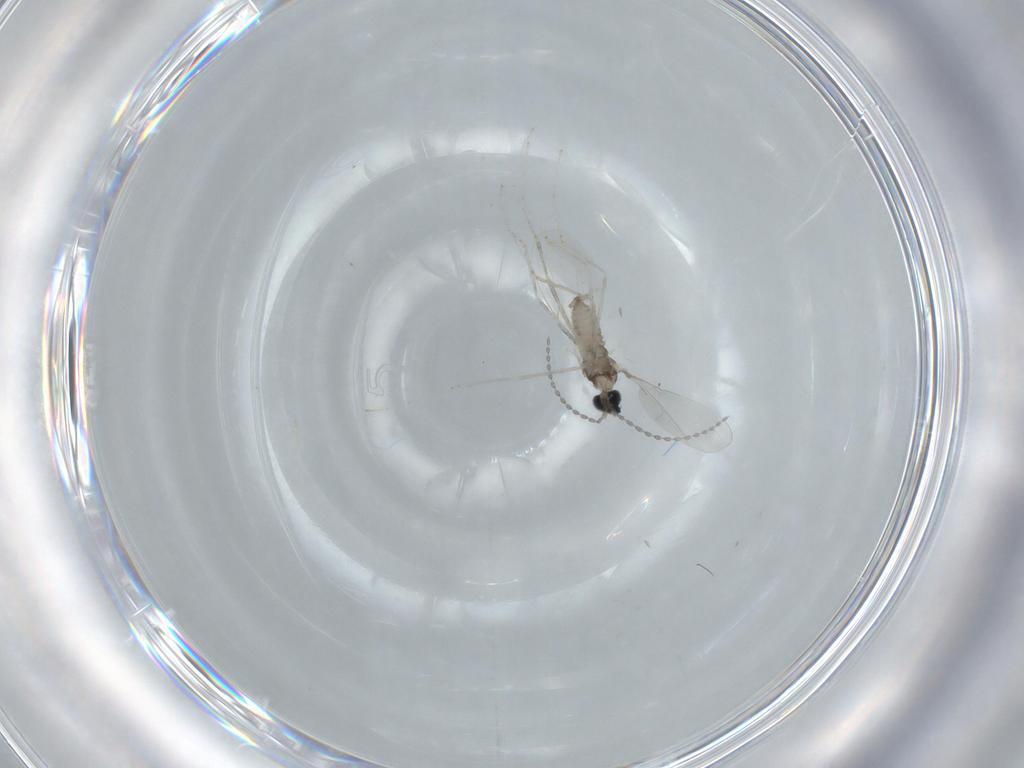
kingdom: Animalia
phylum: Arthropoda
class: Insecta
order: Diptera
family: Cecidomyiidae
